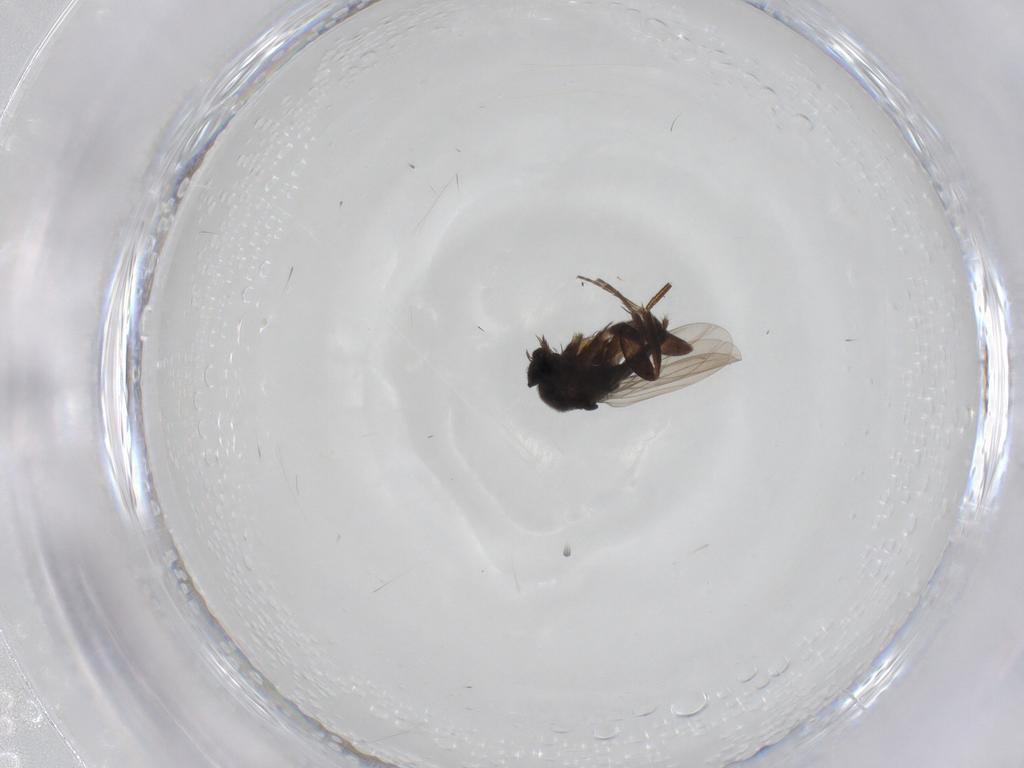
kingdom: Animalia
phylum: Arthropoda
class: Insecta
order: Diptera
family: Phoridae
